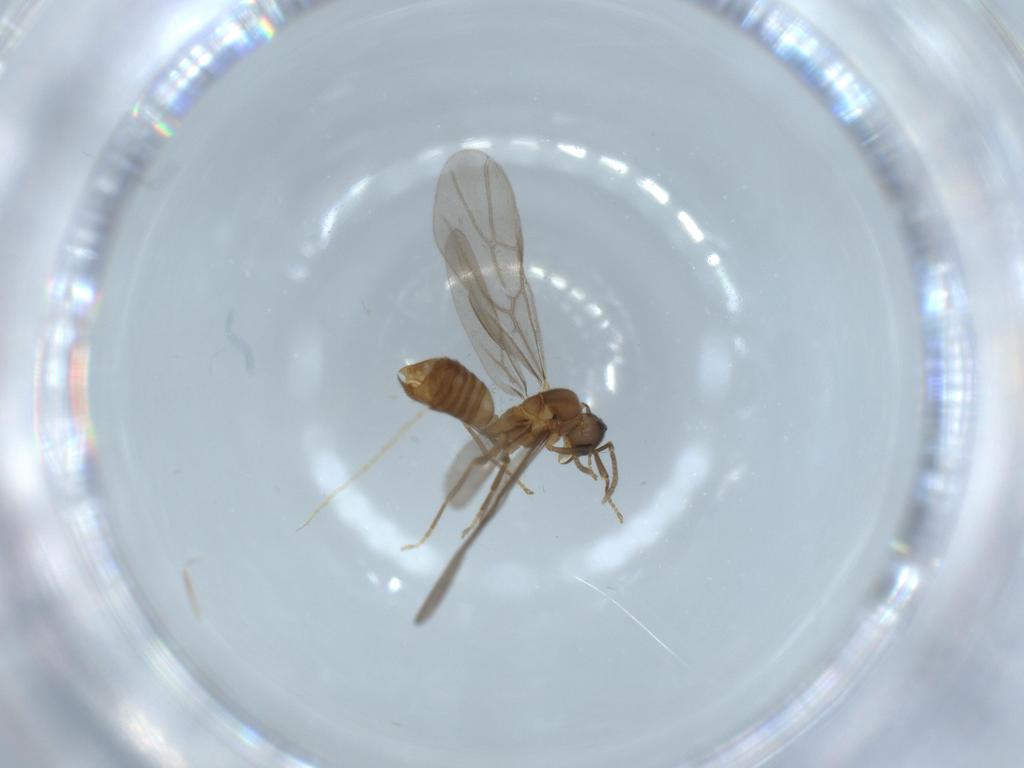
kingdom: Animalia
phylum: Arthropoda
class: Insecta
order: Hymenoptera
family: Formicidae
